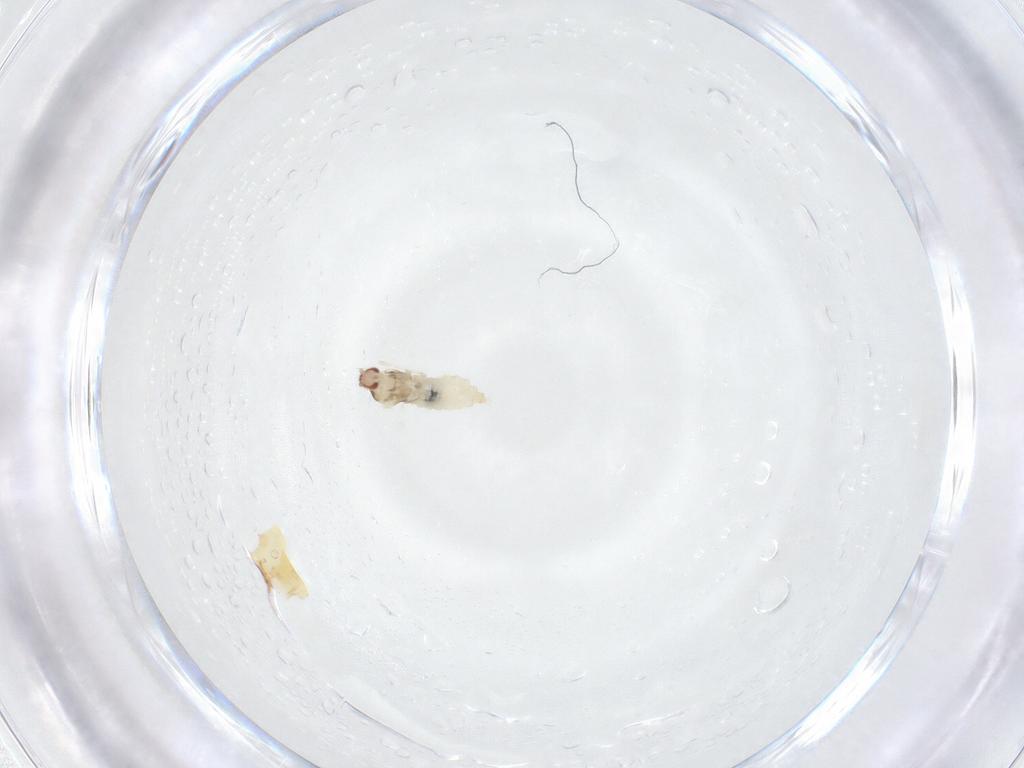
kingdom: Animalia
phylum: Arthropoda
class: Insecta
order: Diptera
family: Cecidomyiidae
